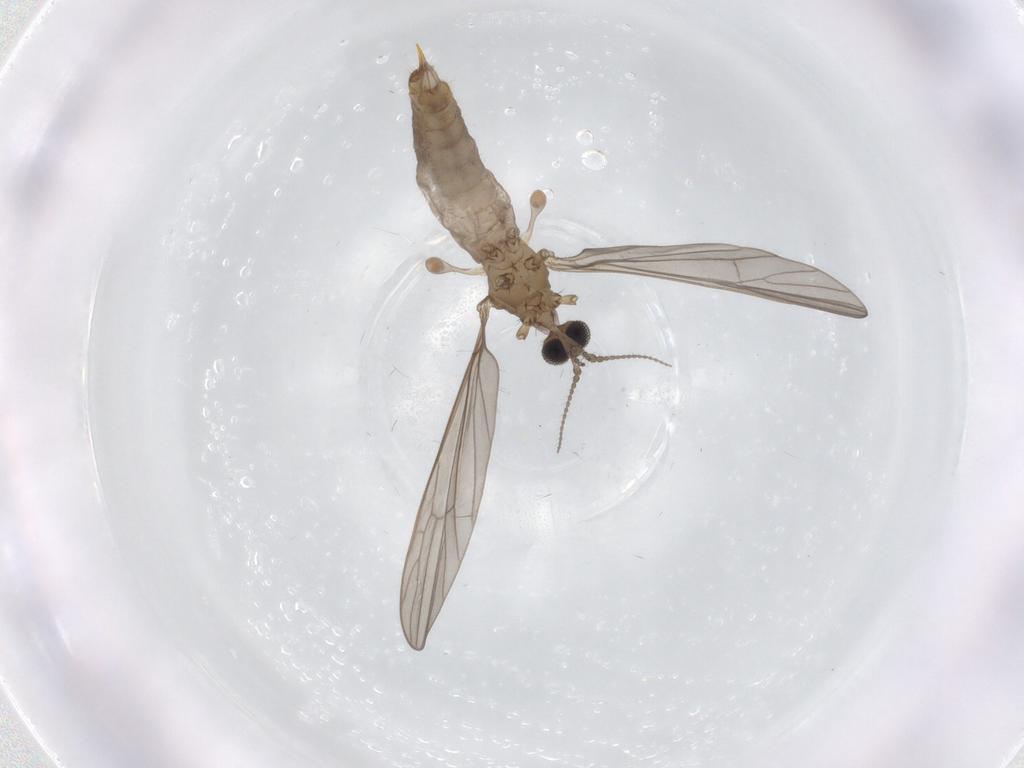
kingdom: Animalia
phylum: Arthropoda
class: Insecta
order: Diptera
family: Limoniidae
